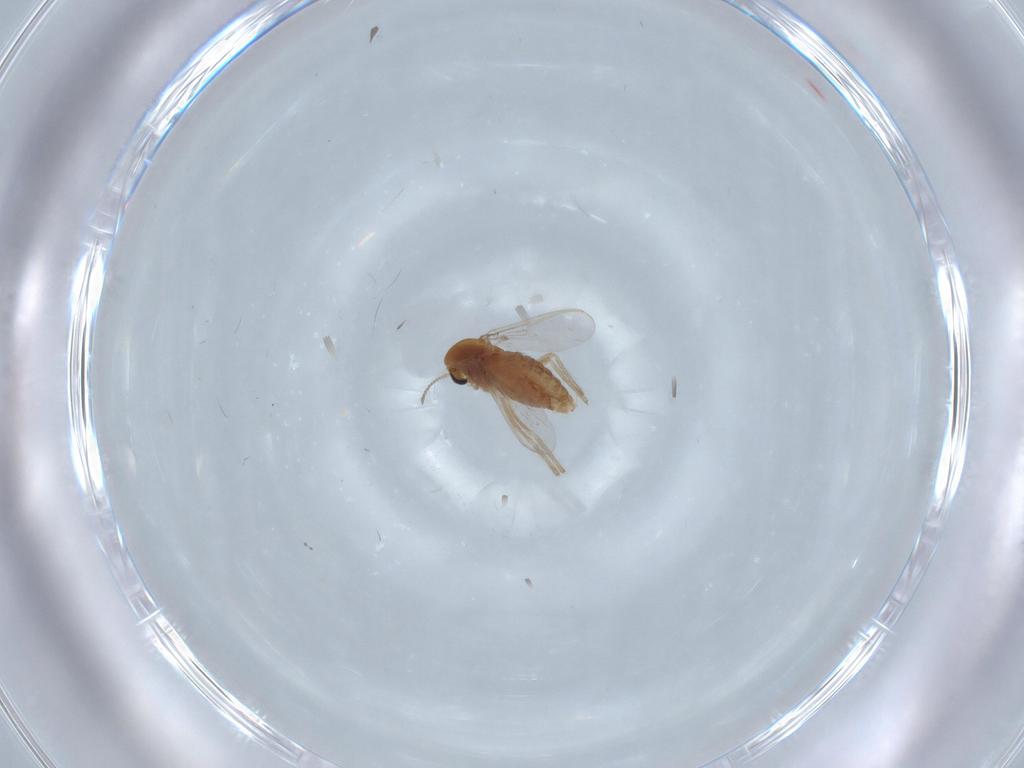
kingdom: Animalia
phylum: Arthropoda
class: Insecta
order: Diptera
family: Chironomidae
